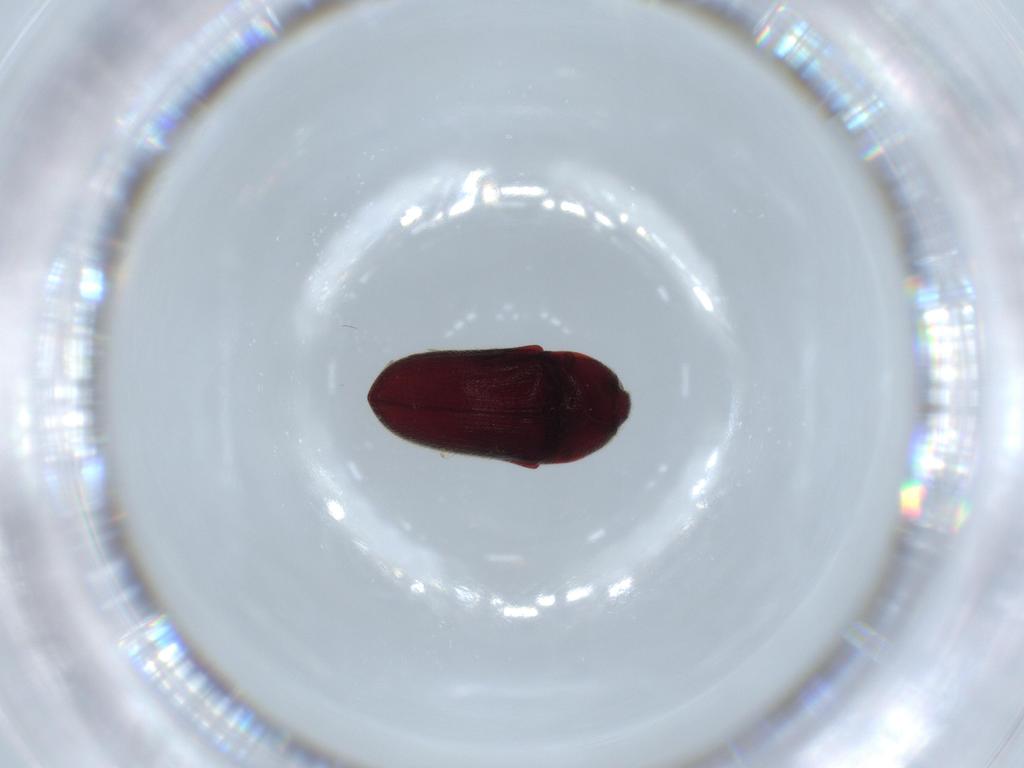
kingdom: Animalia
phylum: Arthropoda
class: Insecta
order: Coleoptera
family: Throscidae
